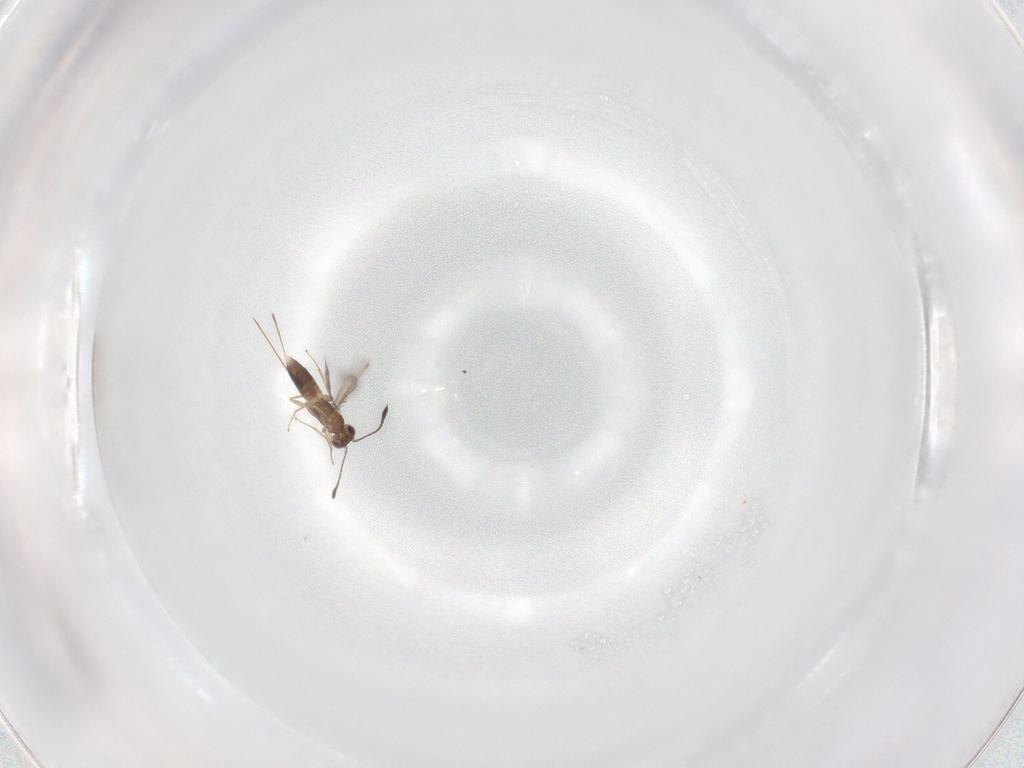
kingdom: Animalia
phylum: Arthropoda
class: Insecta
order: Hymenoptera
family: Mymaridae
